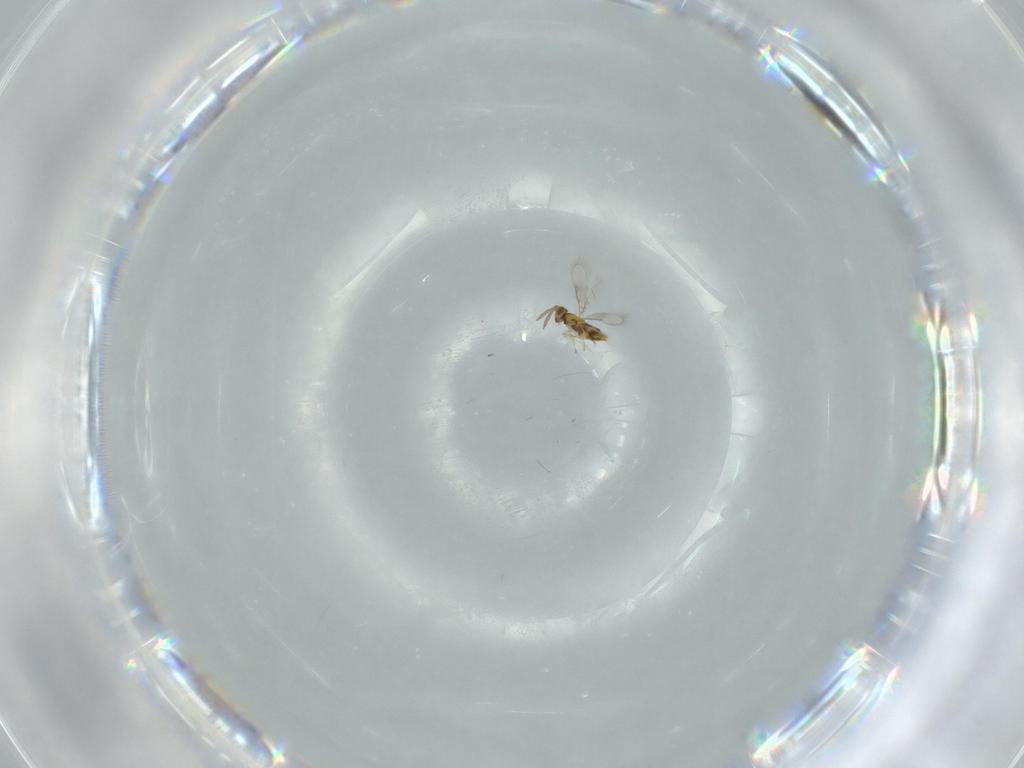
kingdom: Animalia
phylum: Arthropoda
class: Insecta
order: Hymenoptera
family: Aphelinidae
